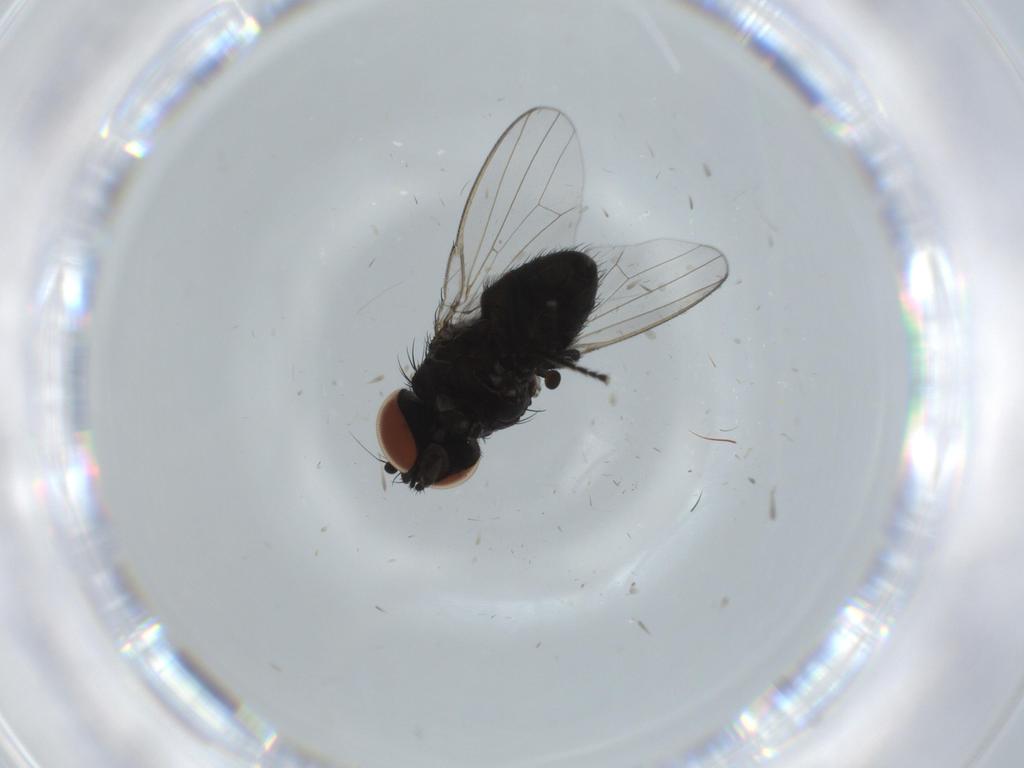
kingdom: Animalia
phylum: Arthropoda
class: Insecta
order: Diptera
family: Milichiidae
